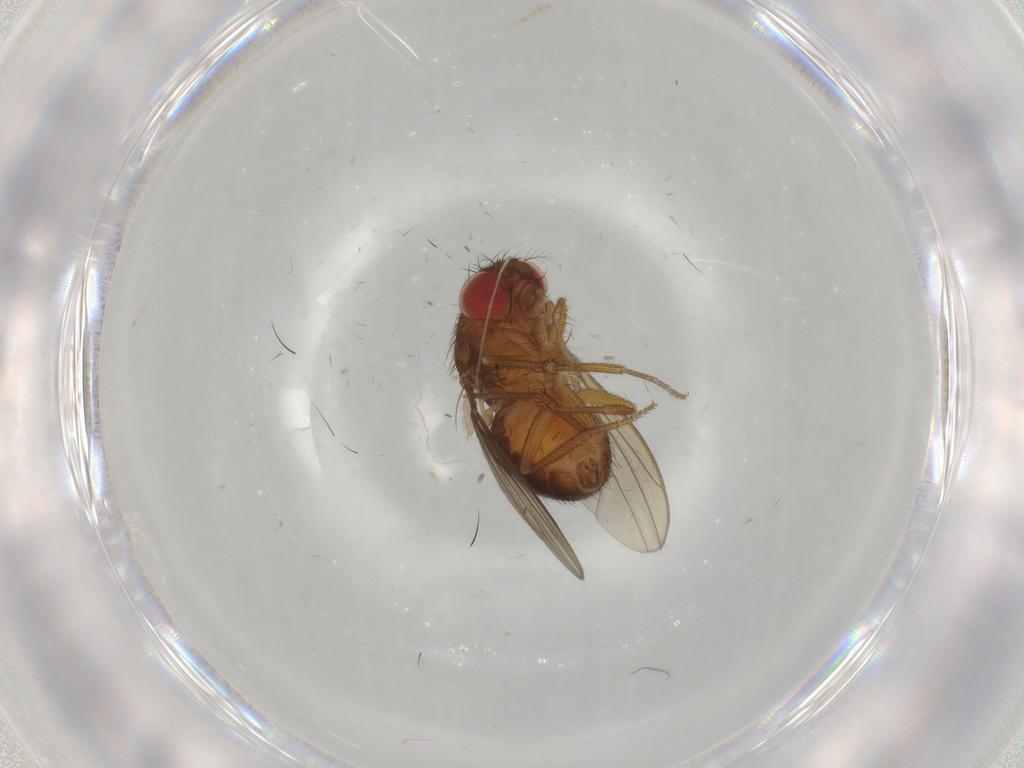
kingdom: Animalia
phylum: Arthropoda
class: Insecta
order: Diptera
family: Drosophilidae
